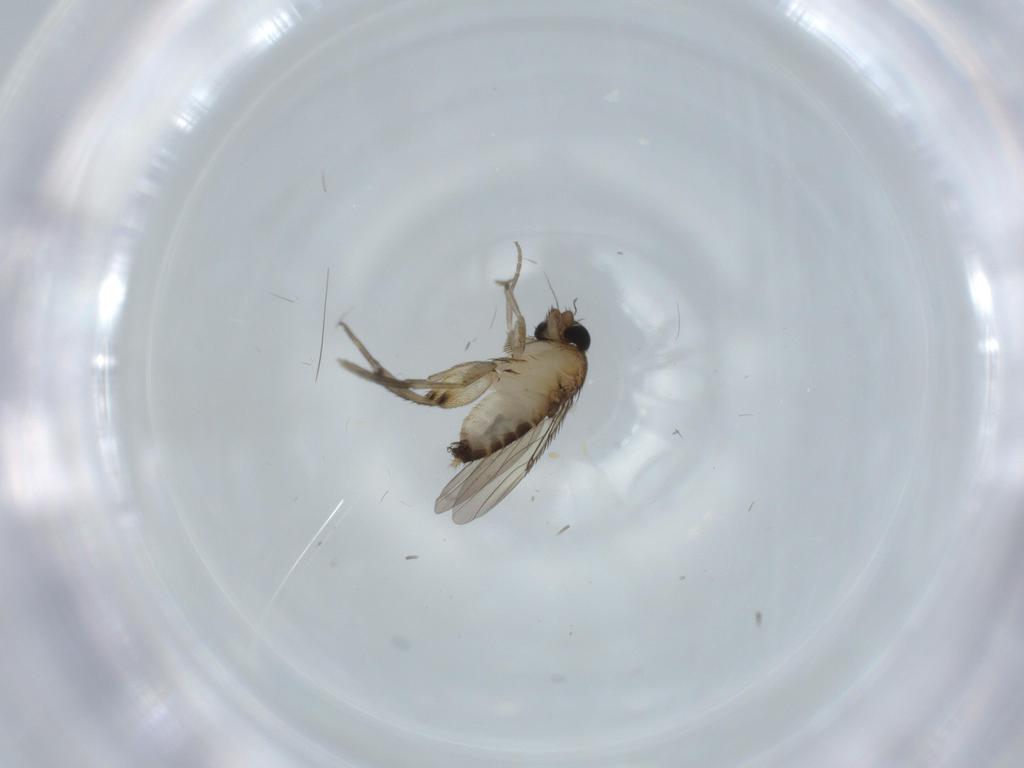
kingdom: Animalia
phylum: Arthropoda
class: Insecta
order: Diptera
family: Phoridae
